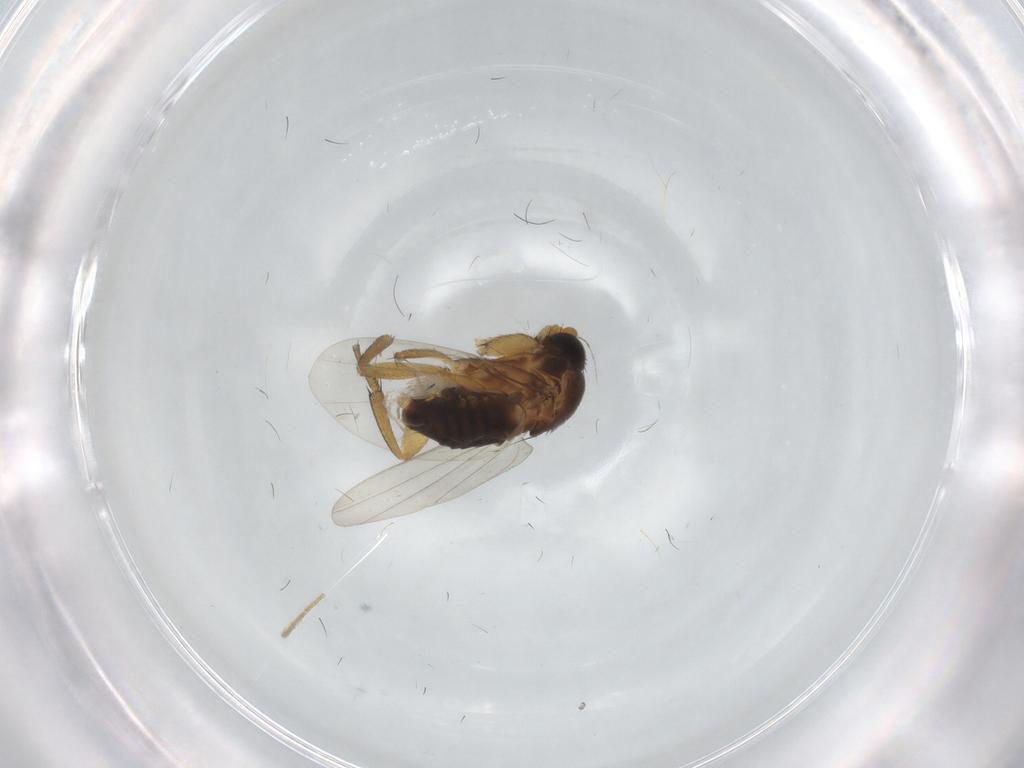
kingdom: Animalia
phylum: Arthropoda
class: Insecta
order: Diptera
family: Phoridae
